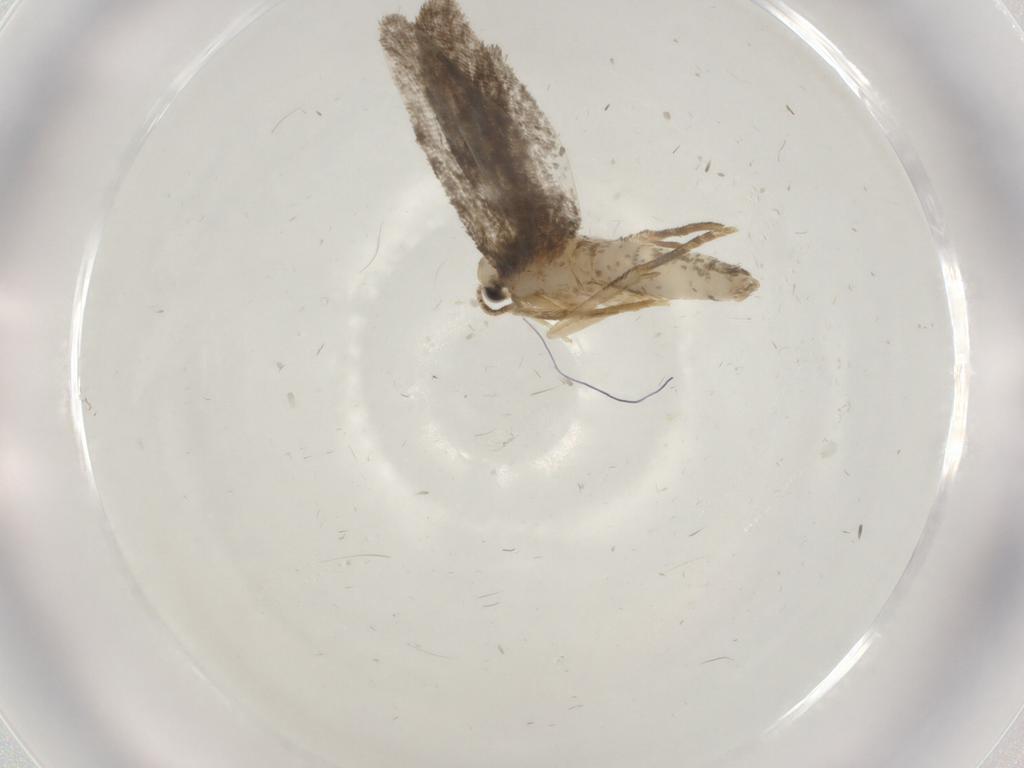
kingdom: Animalia
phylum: Arthropoda
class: Insecta
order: Lepidoptera
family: Psychidae
